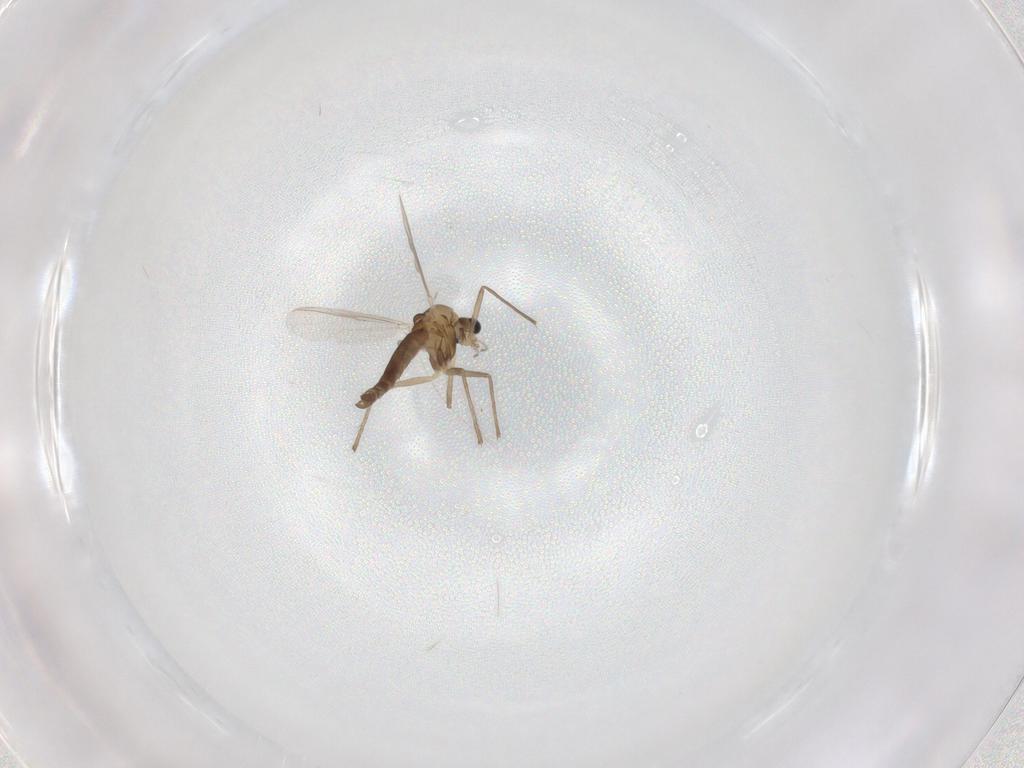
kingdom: Animalia
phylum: Arthropoda
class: Insecta
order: Diptera
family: Chironomidae
